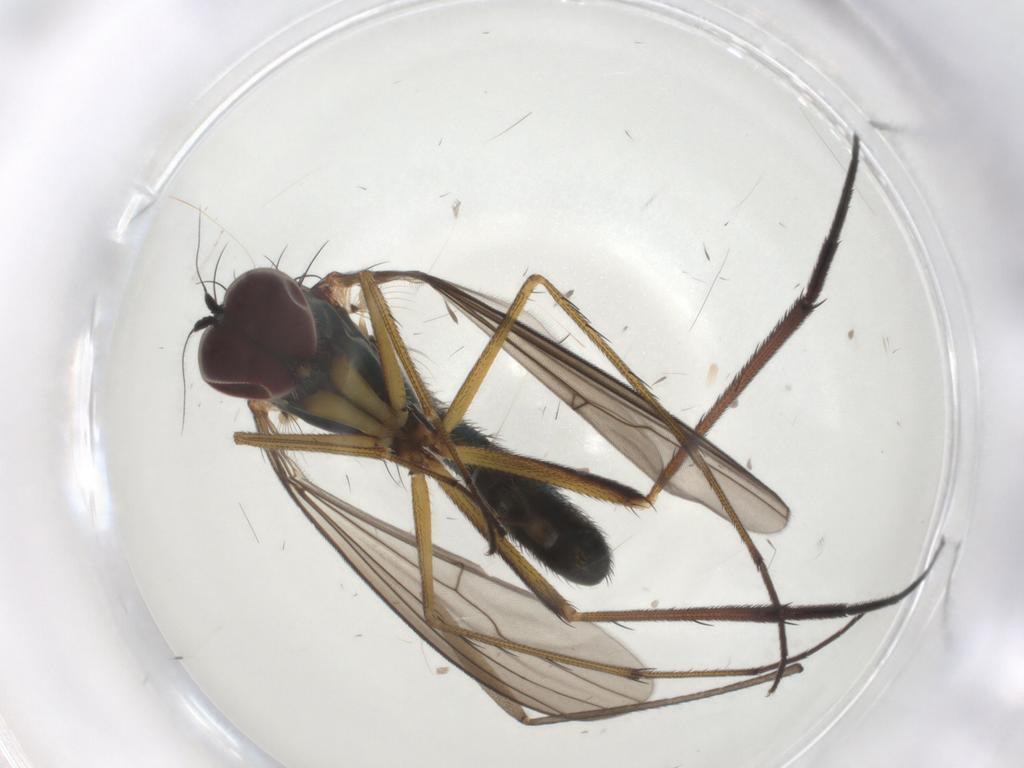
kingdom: Animalia
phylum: Arthropoda
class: Insecta
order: Diptera
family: Dolichopodidae
